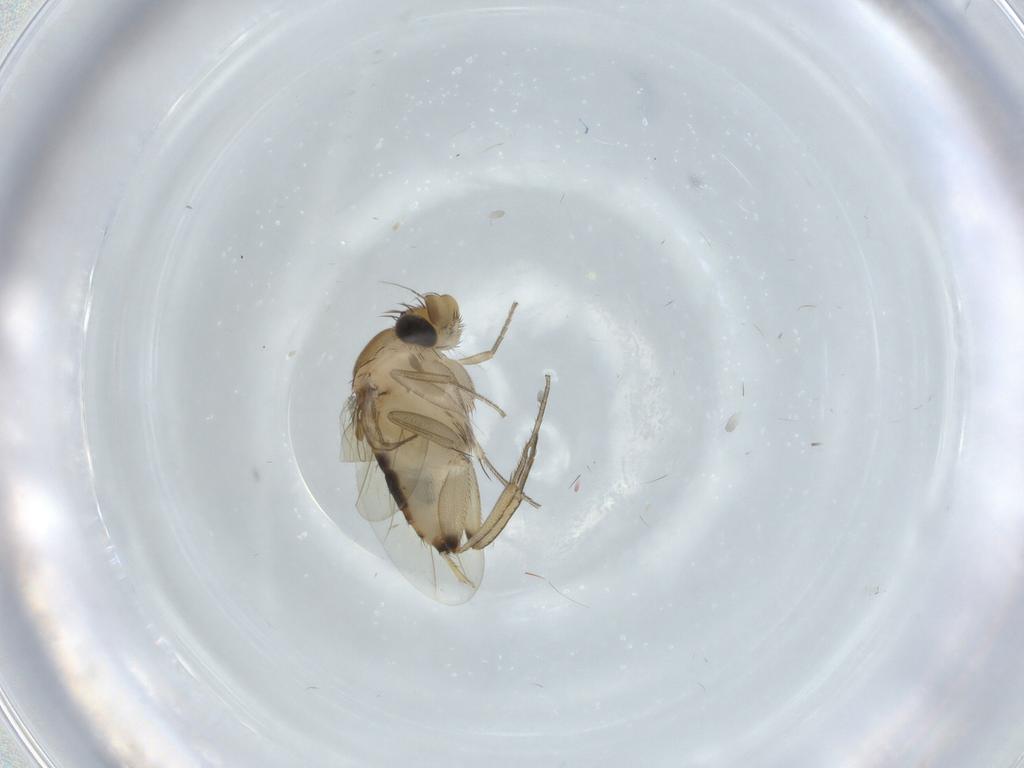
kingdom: Animalia
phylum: Arthropoda
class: Insecta
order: Diptera
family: Phoridae
